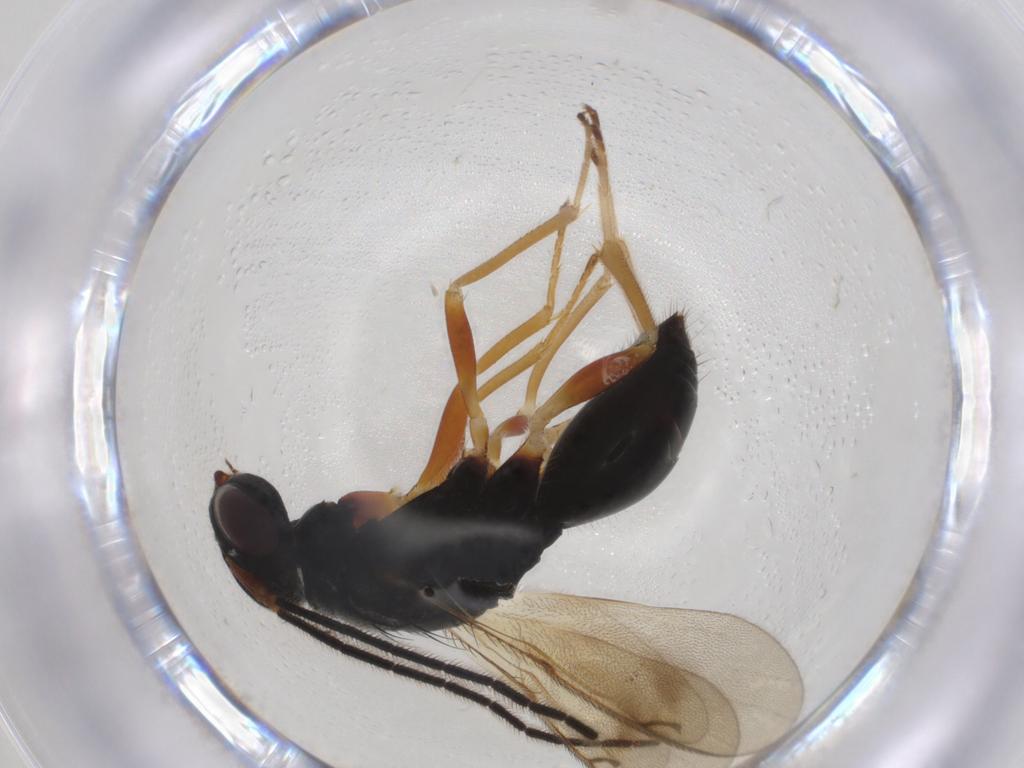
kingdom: Animalia
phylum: Arthropoda
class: Insecta
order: Hymenoptera
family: Diparidae
